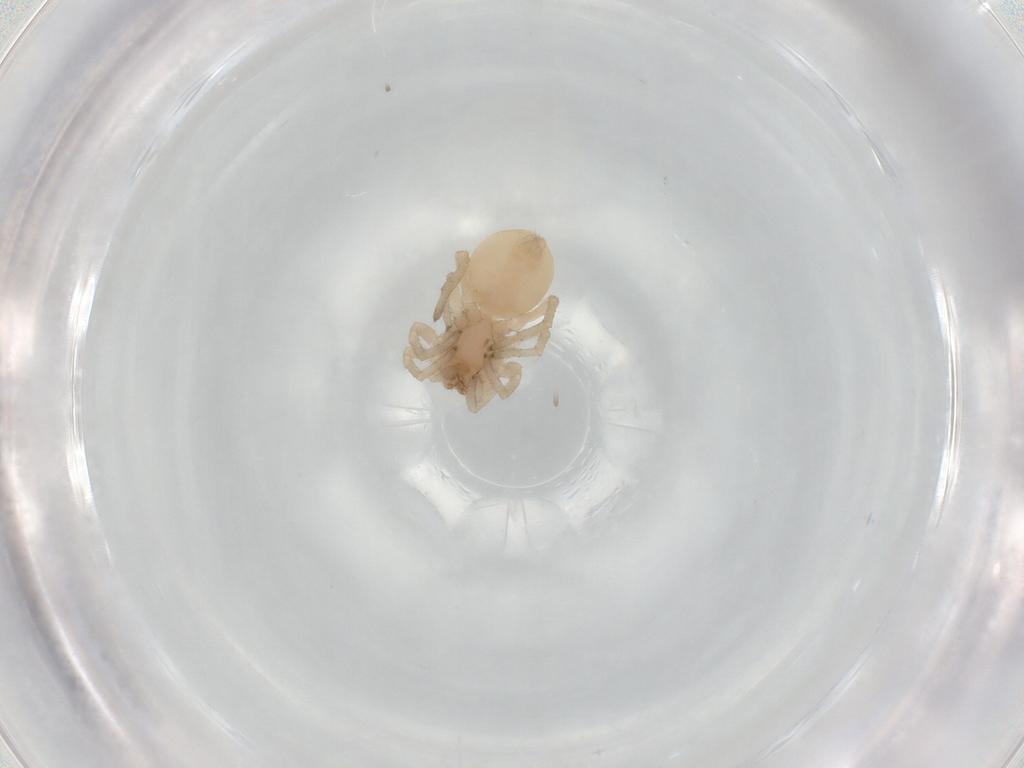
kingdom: Animalia
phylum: Arthropoda
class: Arachnida
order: Araneae
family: Clubionidae
